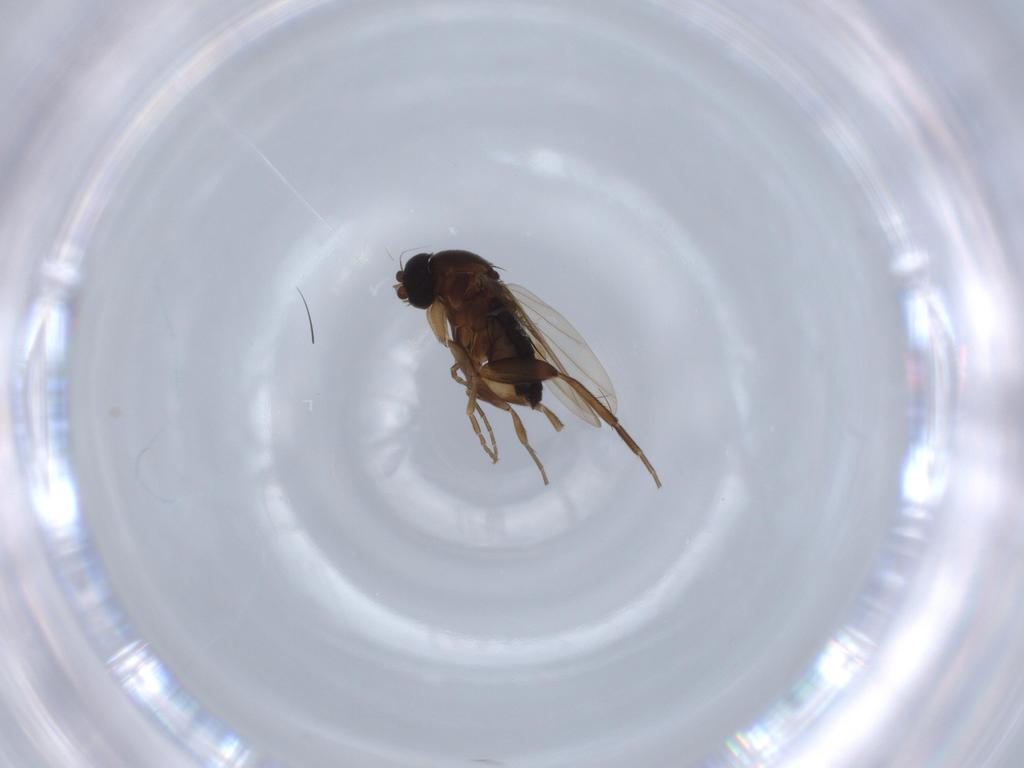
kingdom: Animalia
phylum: Arthropoda
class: Insecta
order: Diptera
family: Phoridae
